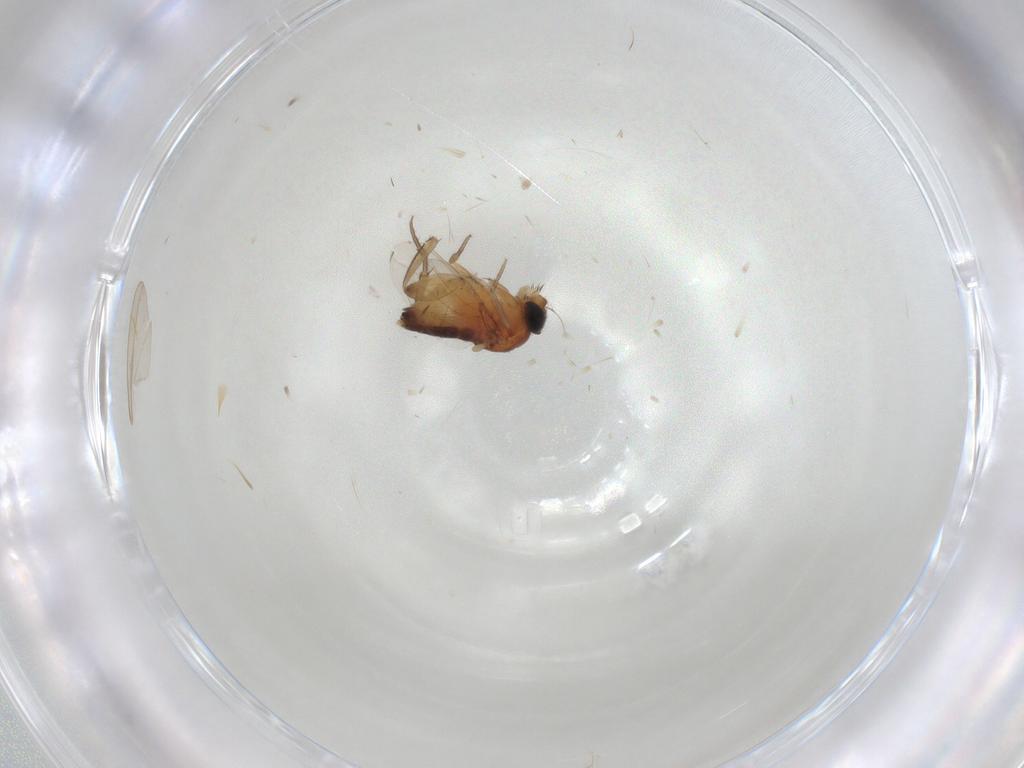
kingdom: Animalia
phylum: Arthropoda
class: Insecta
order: Diptera
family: Phoridae
